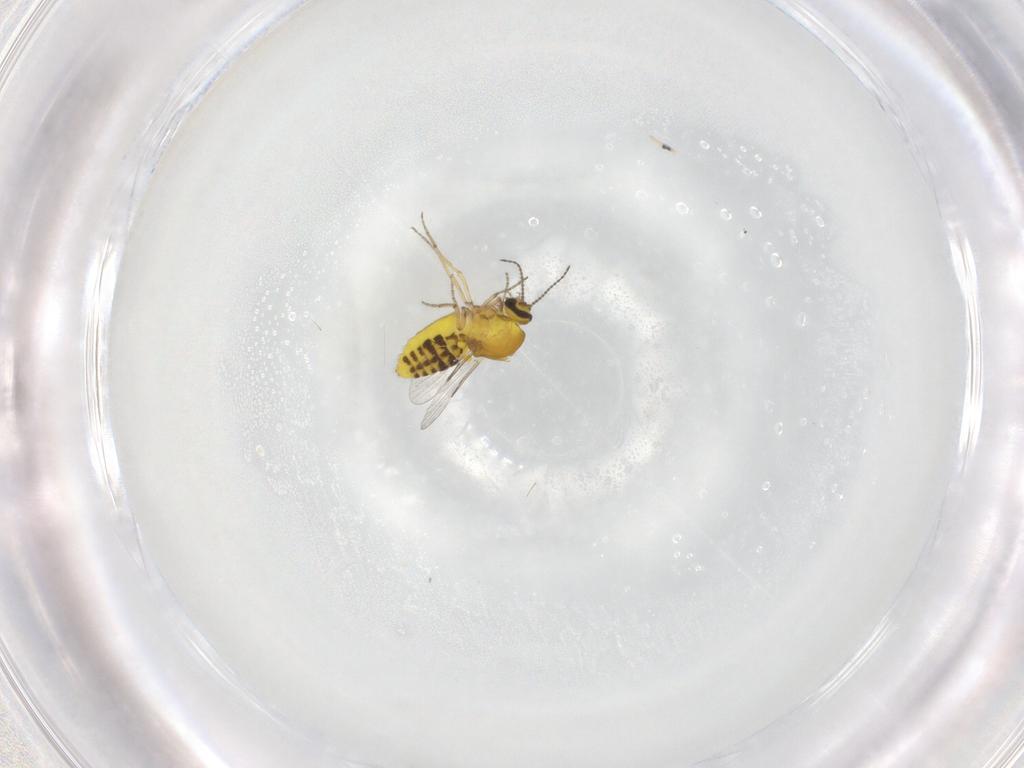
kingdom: Animalia
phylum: Arthropoda
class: Insecta
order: Diptera
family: Ceratopogonidae
